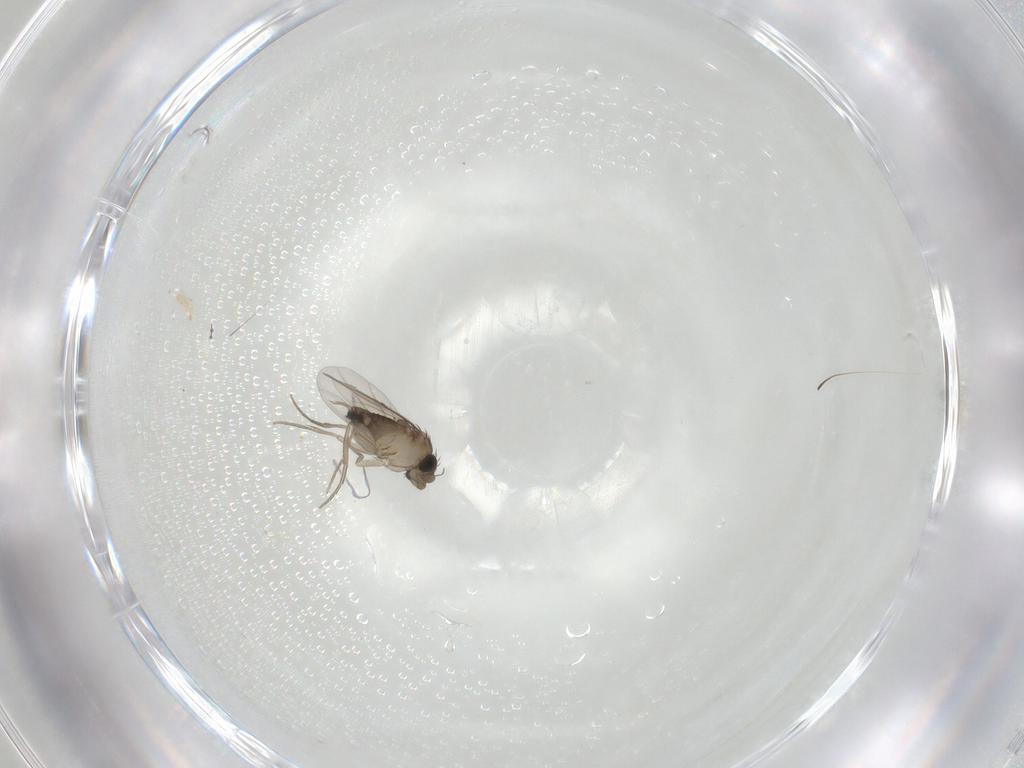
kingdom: Animalia
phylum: Arthropoda
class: Insecta
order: Diptera
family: Phoridae
